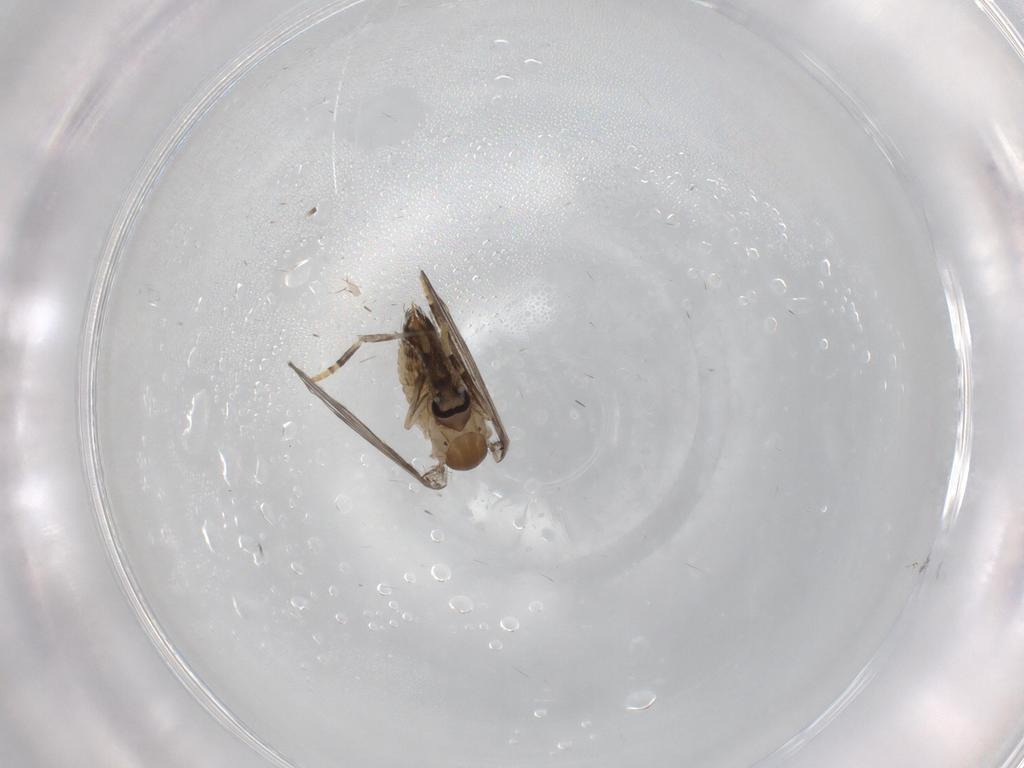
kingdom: Animalia
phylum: Arthropoda
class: Insecta
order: Diptera
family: Psychodidae
